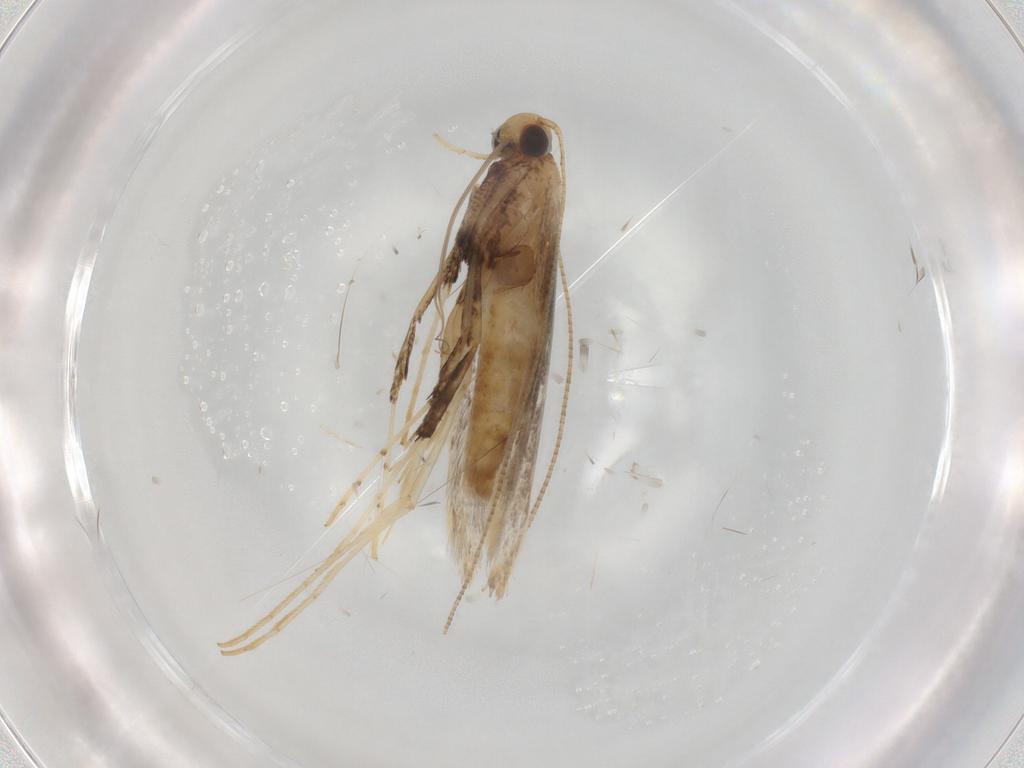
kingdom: Animalia
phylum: Arthropoda
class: Insecta
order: Lepidoptera
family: Gracillariidae
